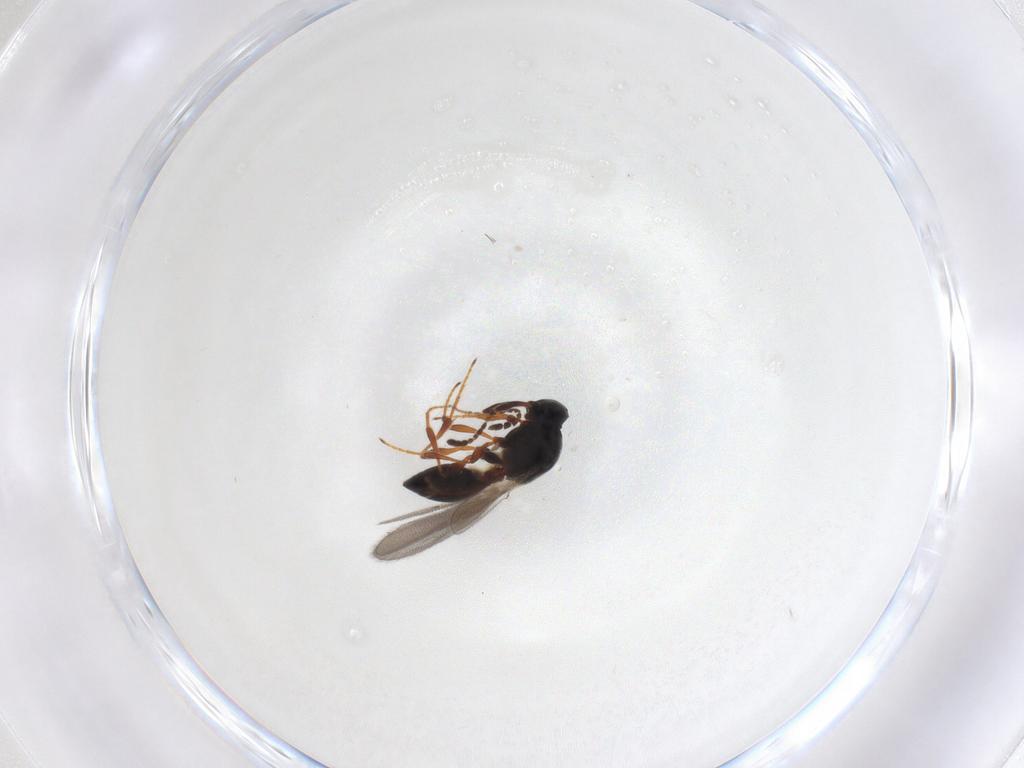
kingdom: Animalia
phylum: Arthropoda
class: Insecta
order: Hymenoptera
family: Platygastridae
